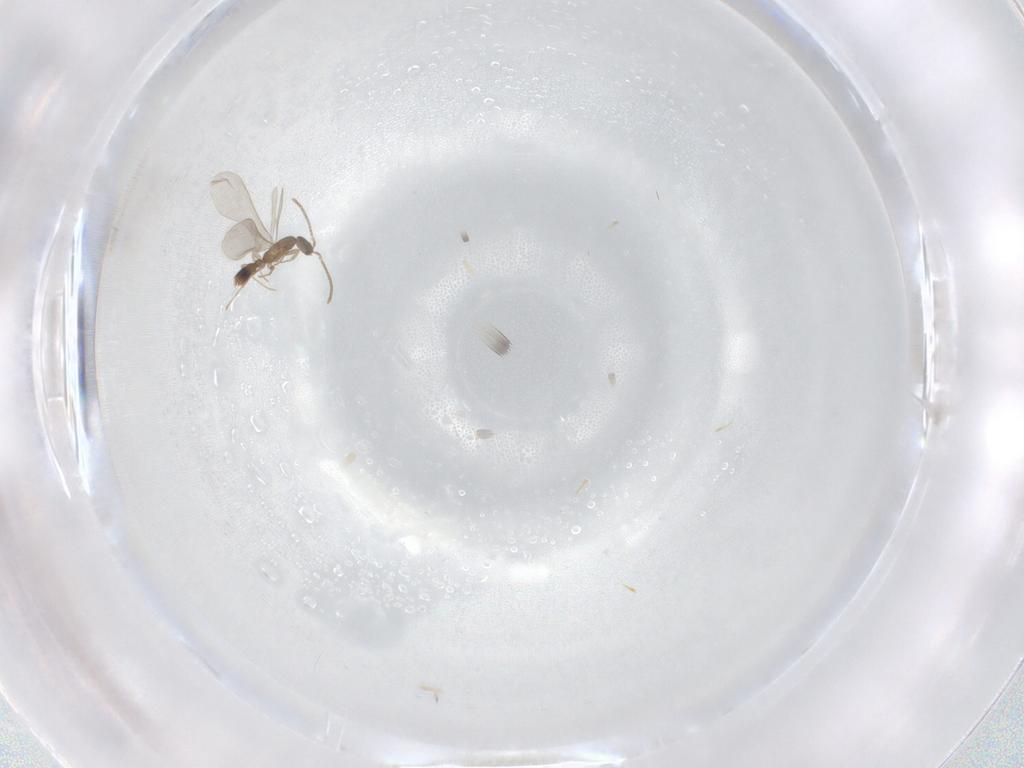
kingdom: Animalia
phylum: Arthropoda
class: Insecta
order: Hymenoptera
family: Formicidae
